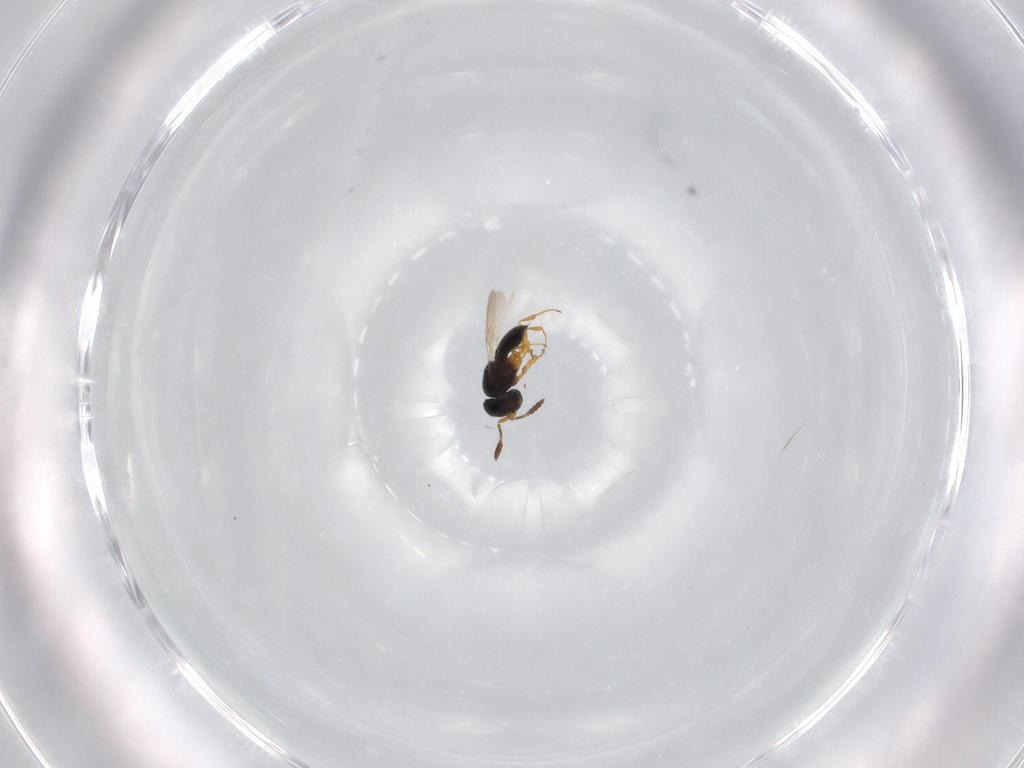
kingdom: Animalia
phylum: Arthropoda
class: Insecta
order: Hymenoptera
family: Scelionidae
